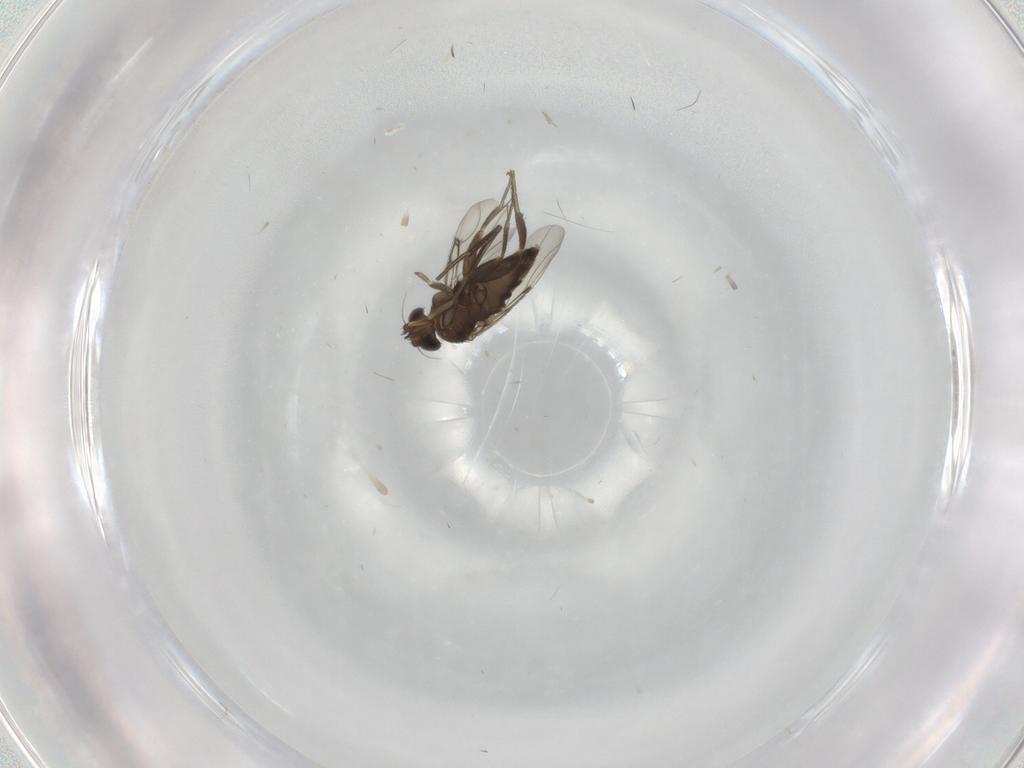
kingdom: Animalia
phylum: Arthropoda
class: Insecta
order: Diptera
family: Phoridae
